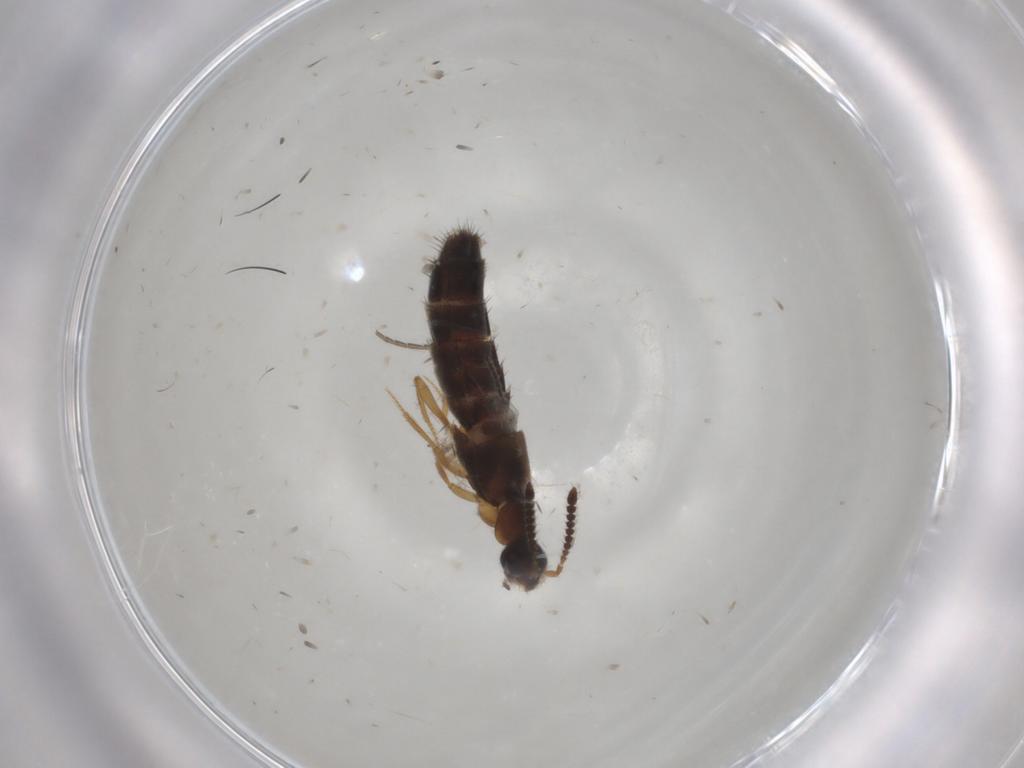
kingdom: Animalia
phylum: Arthropoda
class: Insecta
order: Coleoptera
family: Staphylinidae
